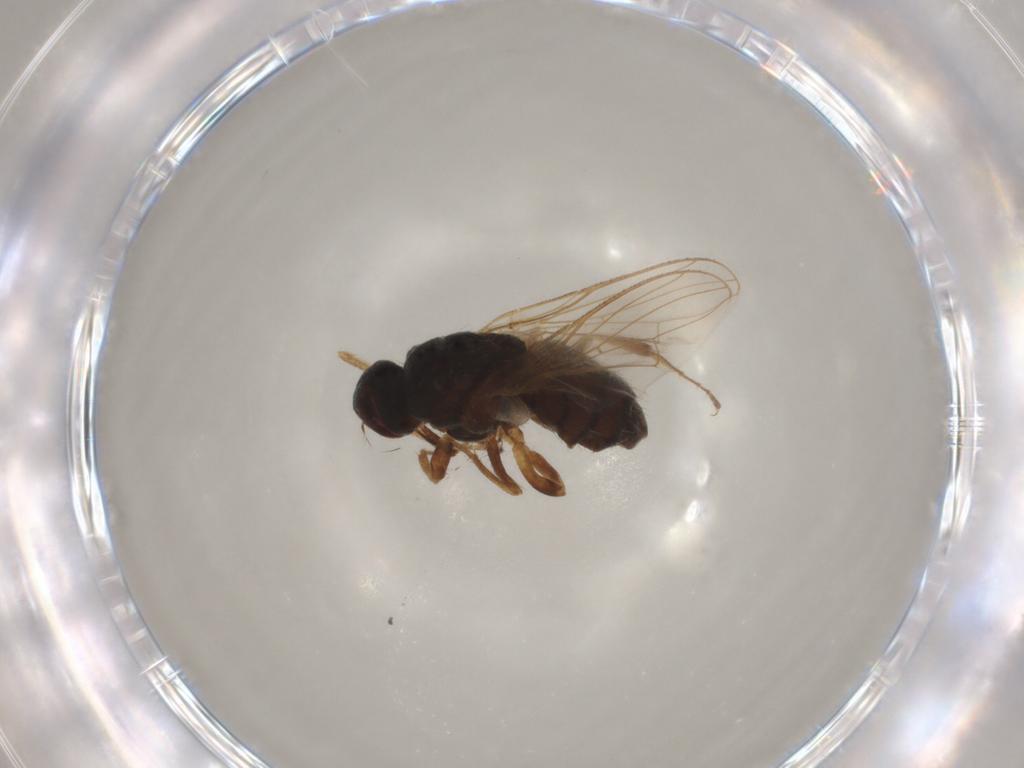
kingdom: Animalia
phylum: Arthropoda
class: Insecta
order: Diptera
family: Muscidae
